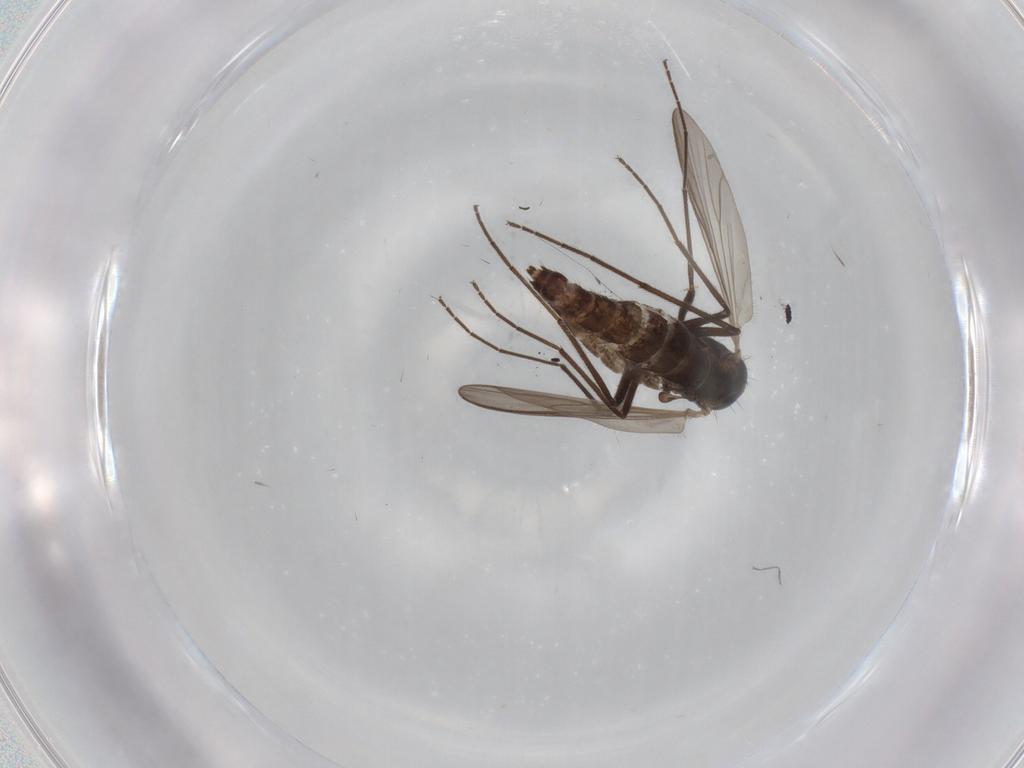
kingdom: Animalia
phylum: Arthropoda
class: Insecta
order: Diptera
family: Chironomidae
